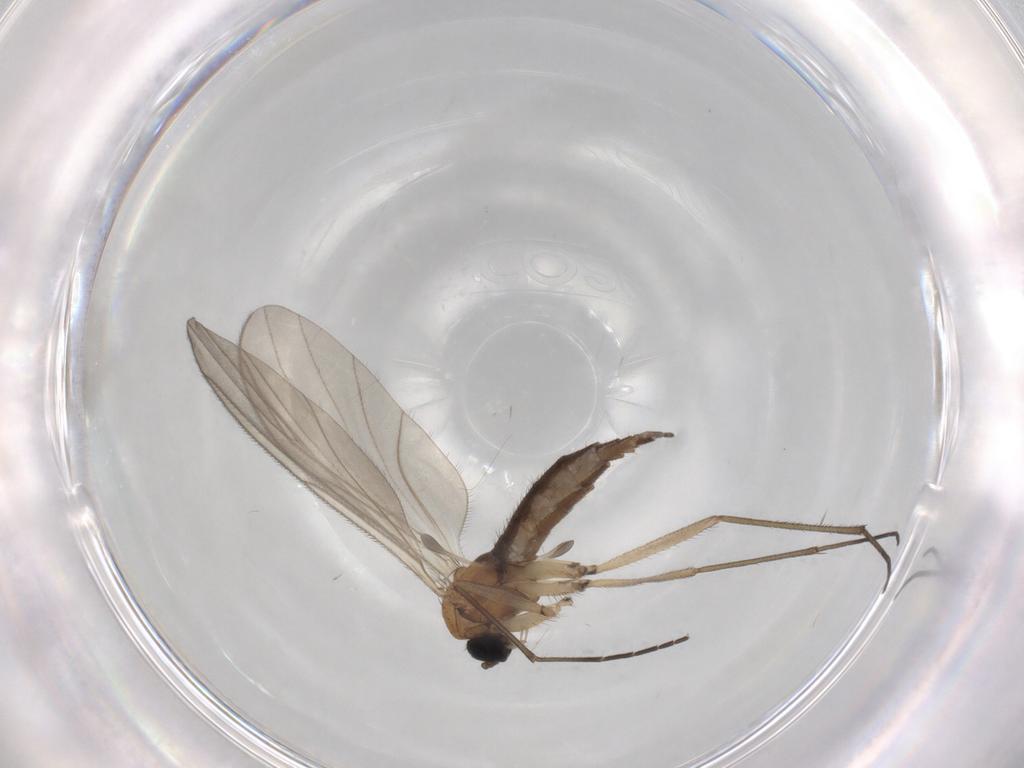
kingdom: Animalia
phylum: Arthropoda
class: Insecta
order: Diptera
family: Sciaridae
